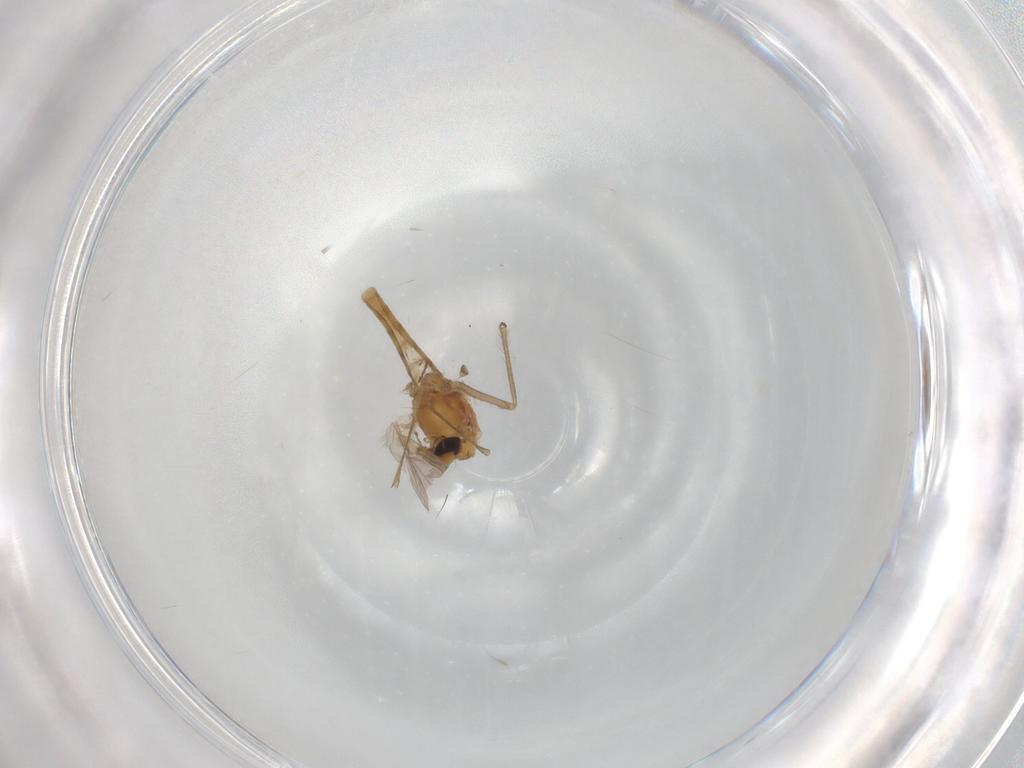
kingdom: Animalia
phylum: Arthropoda
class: Insecta
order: Diptera
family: Chironomidae
